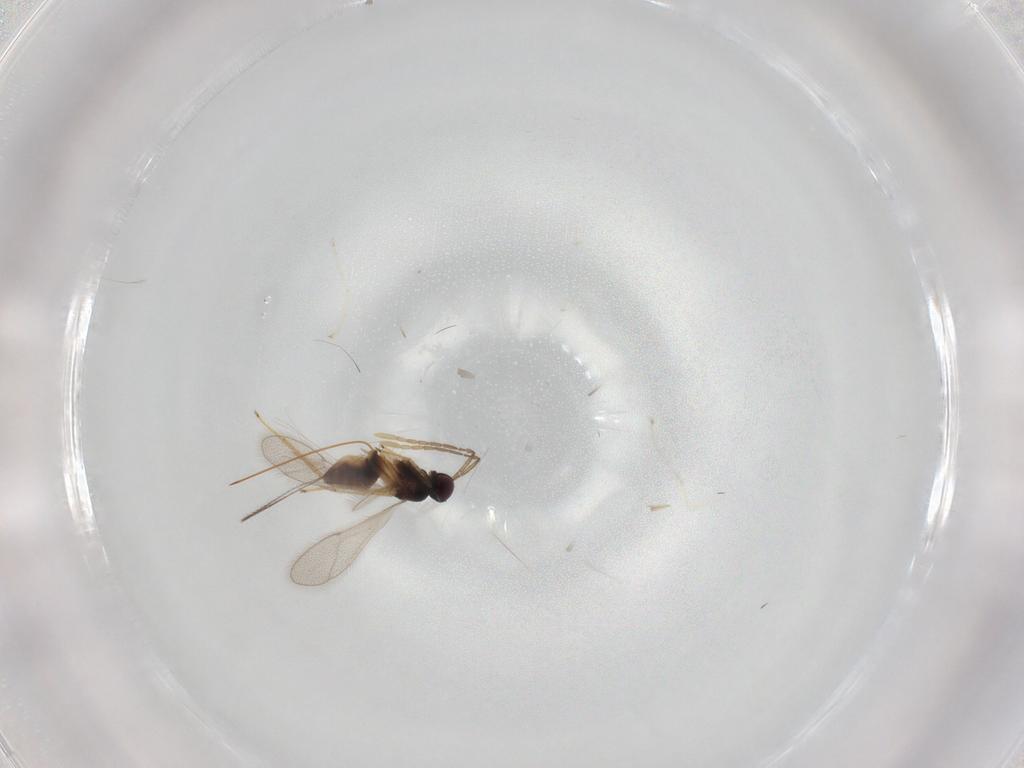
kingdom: Animalia
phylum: Arthropoda
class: Insecta
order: Hymenoptera
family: Mymaridae
